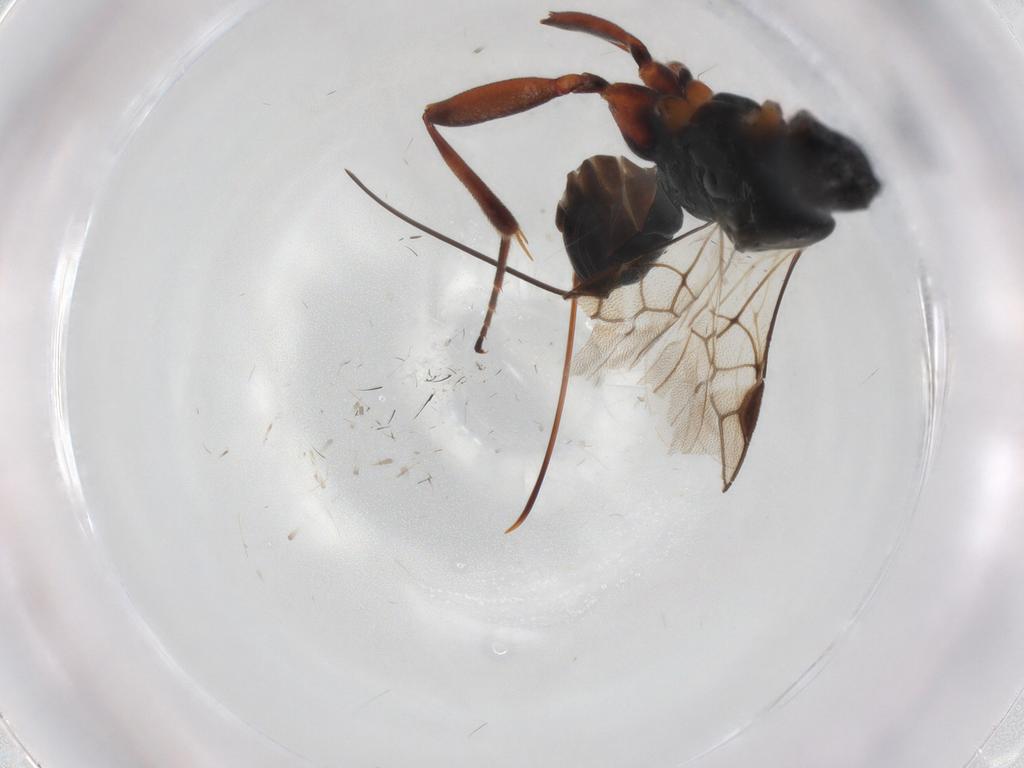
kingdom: Animalia
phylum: Arthropoda
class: Insecta
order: Hymenoptera
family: Braconidae
